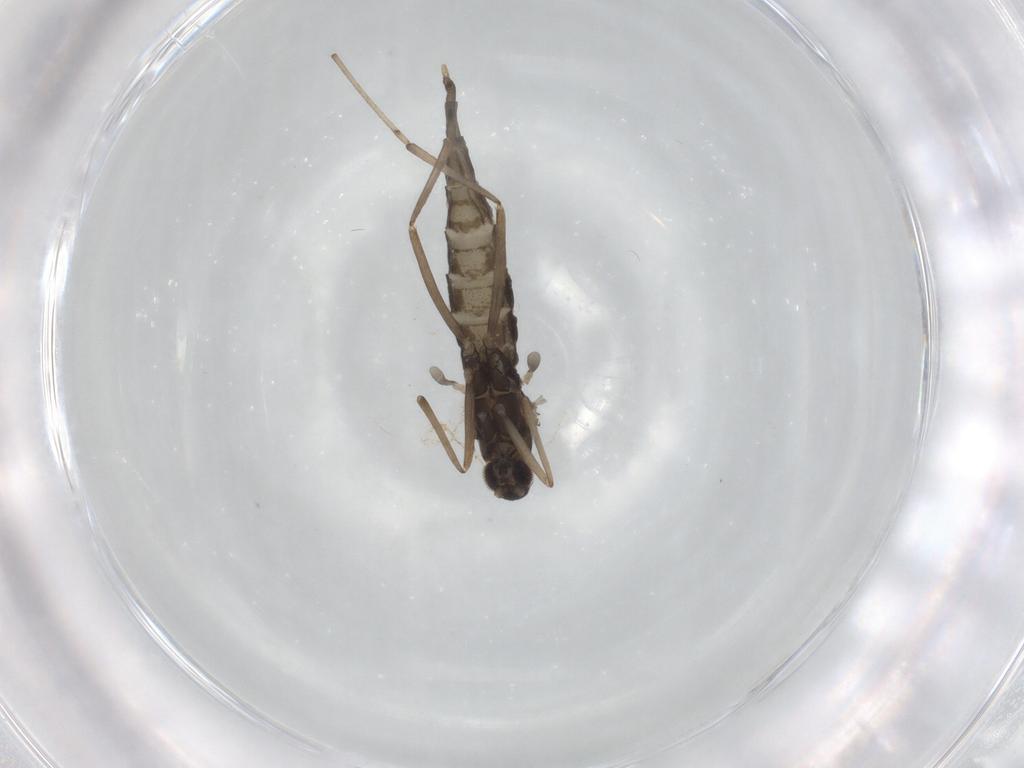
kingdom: Animalia
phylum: Arthropoda
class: Insecta
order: Diptera
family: Cecidomyiidae
